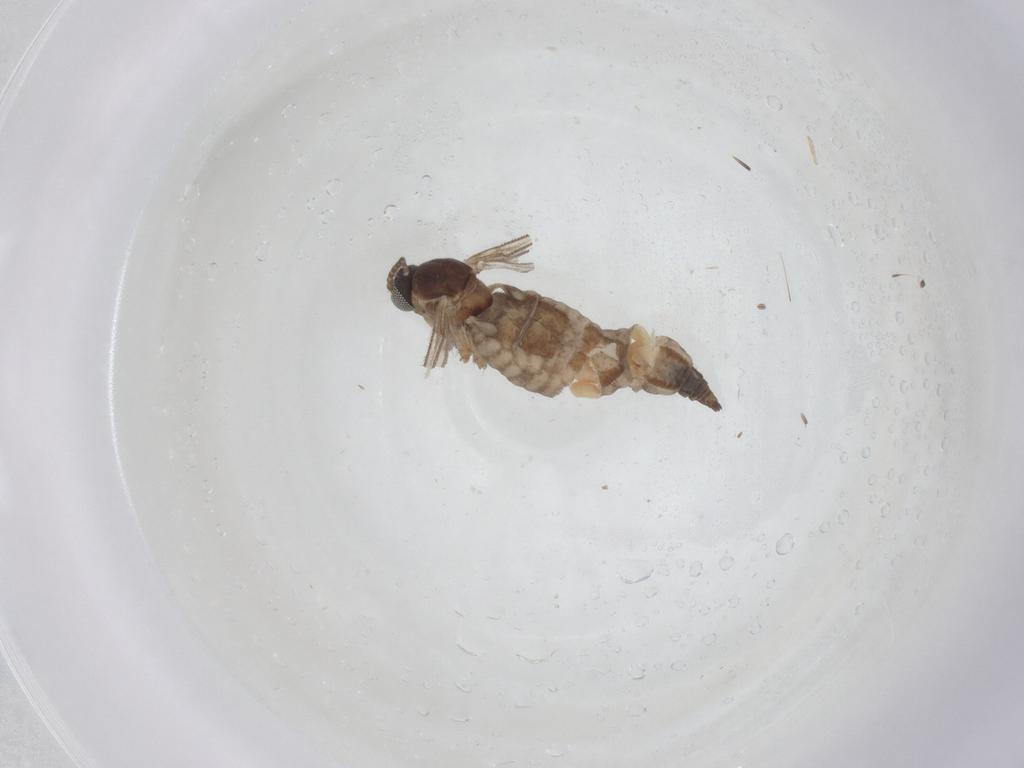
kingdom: Animalia
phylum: Arthropoda
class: Insecta
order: Diptera
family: Sciaridae
